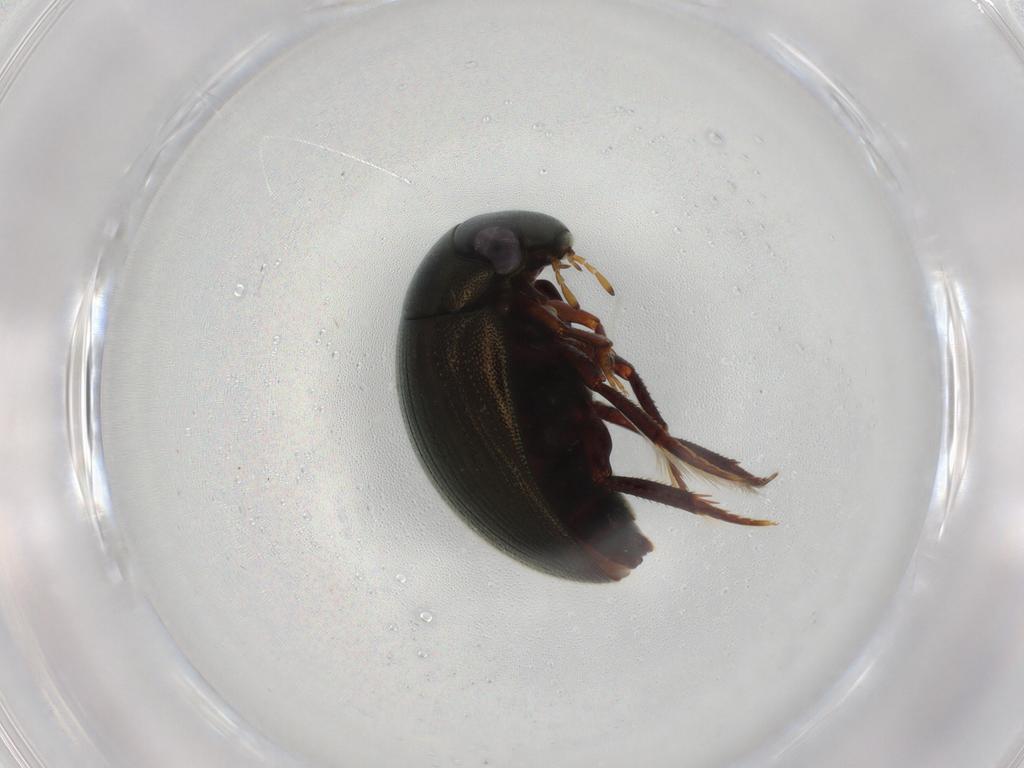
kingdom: Animalia
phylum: Arthropoda
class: Insecta
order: Coleoptera
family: Limnichidae
